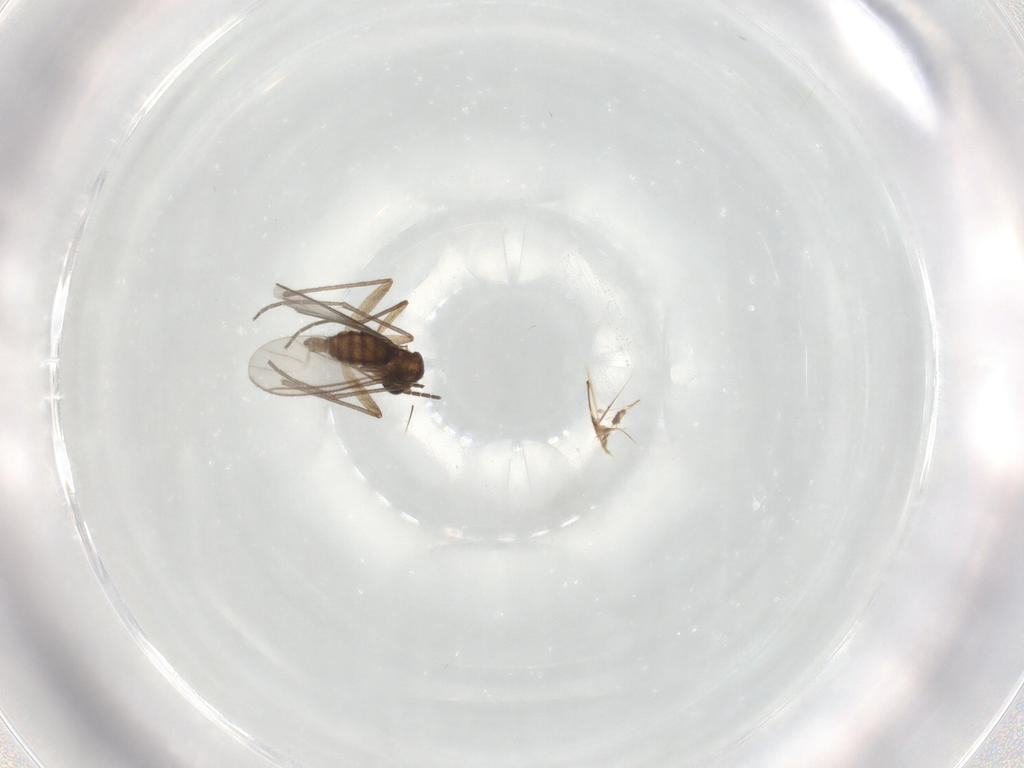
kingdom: Animalia
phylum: Arthropoda
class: Insecta
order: Diptera
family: Sciaridae
